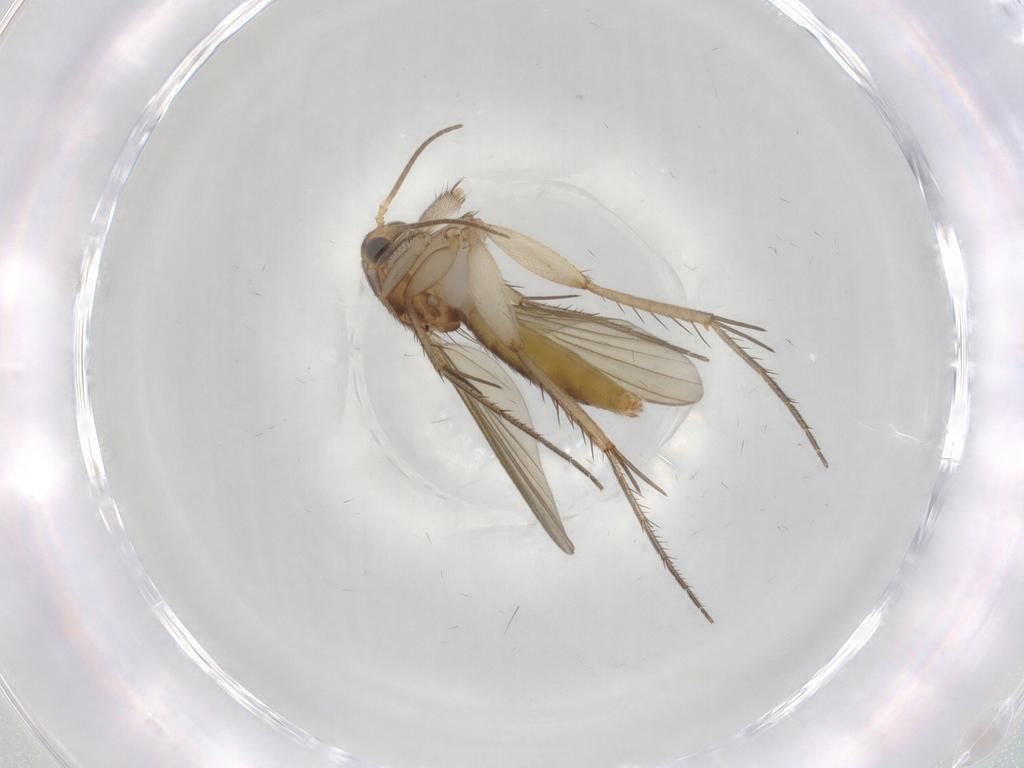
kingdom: Animalia
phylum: Arthropoda
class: Insecta
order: Diptera
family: Mycetophilidae
